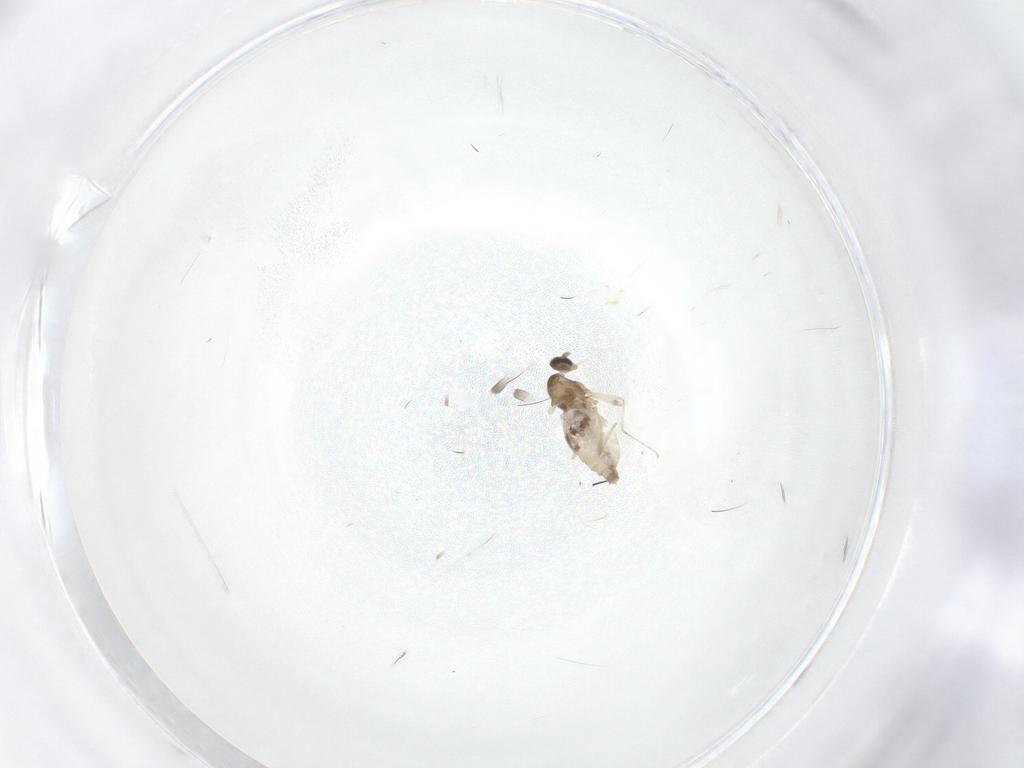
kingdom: Animalia
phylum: Arthropoda
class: Insecta
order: Diptera
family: Cecidomyiidae
